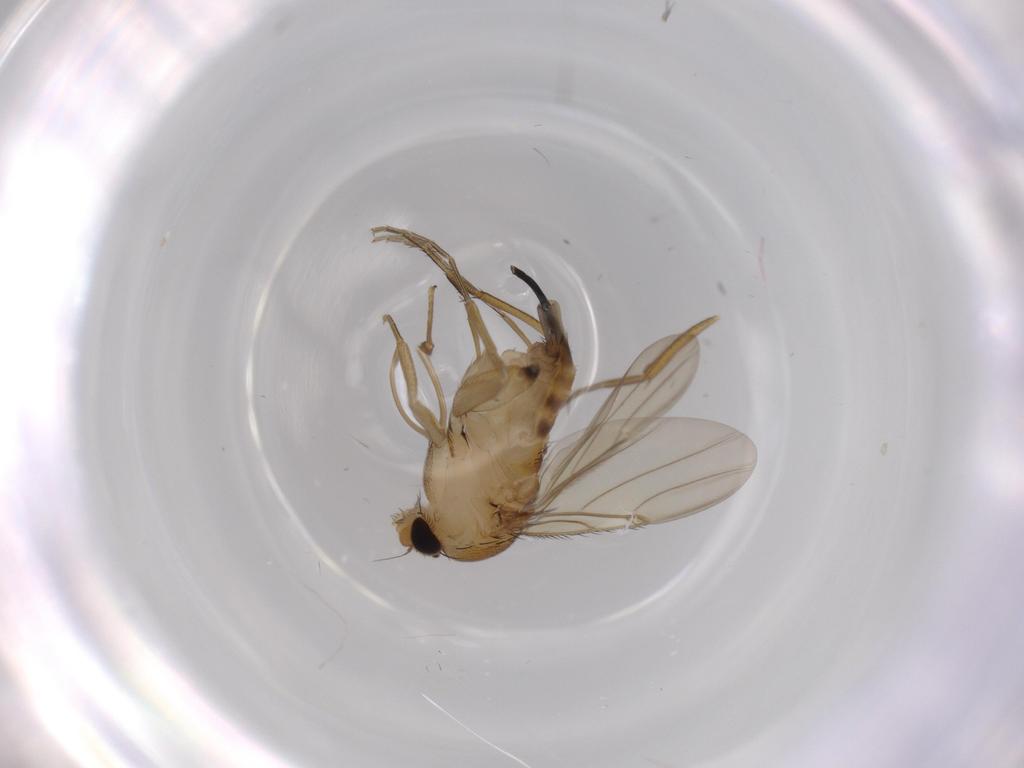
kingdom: Animalia
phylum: Arthropoda
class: Insecta
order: Diptera
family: Phoridae
